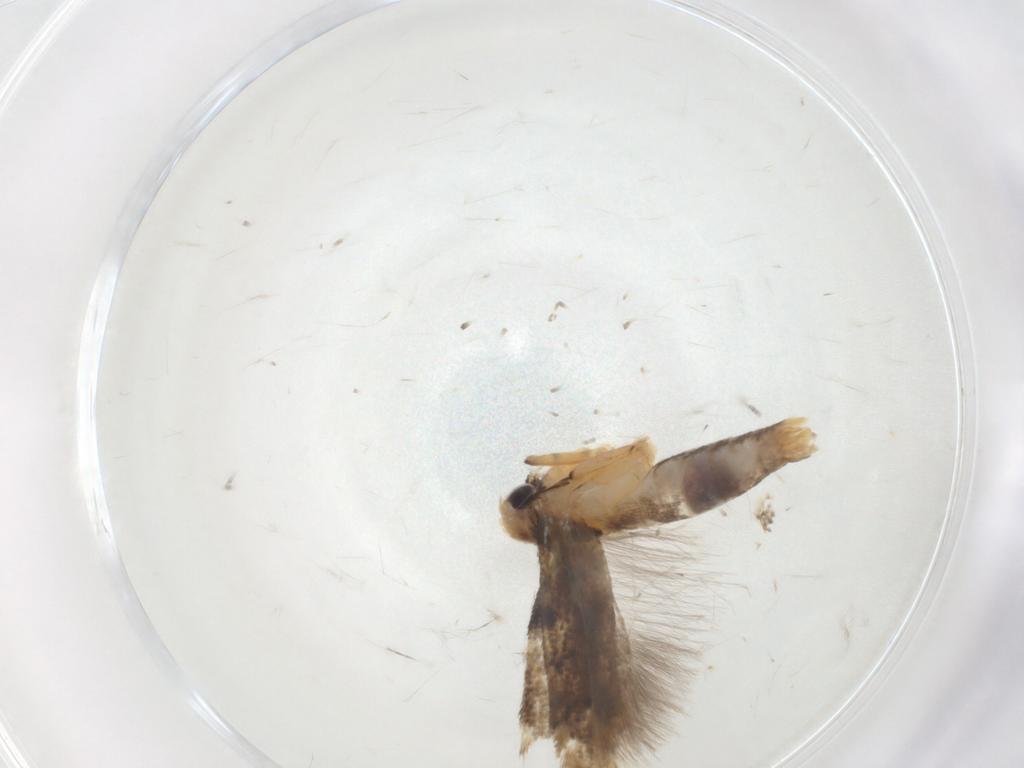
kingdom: Animalia
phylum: Arthropoda
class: Insecta
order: Lepidoptera
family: Gelechiidae
